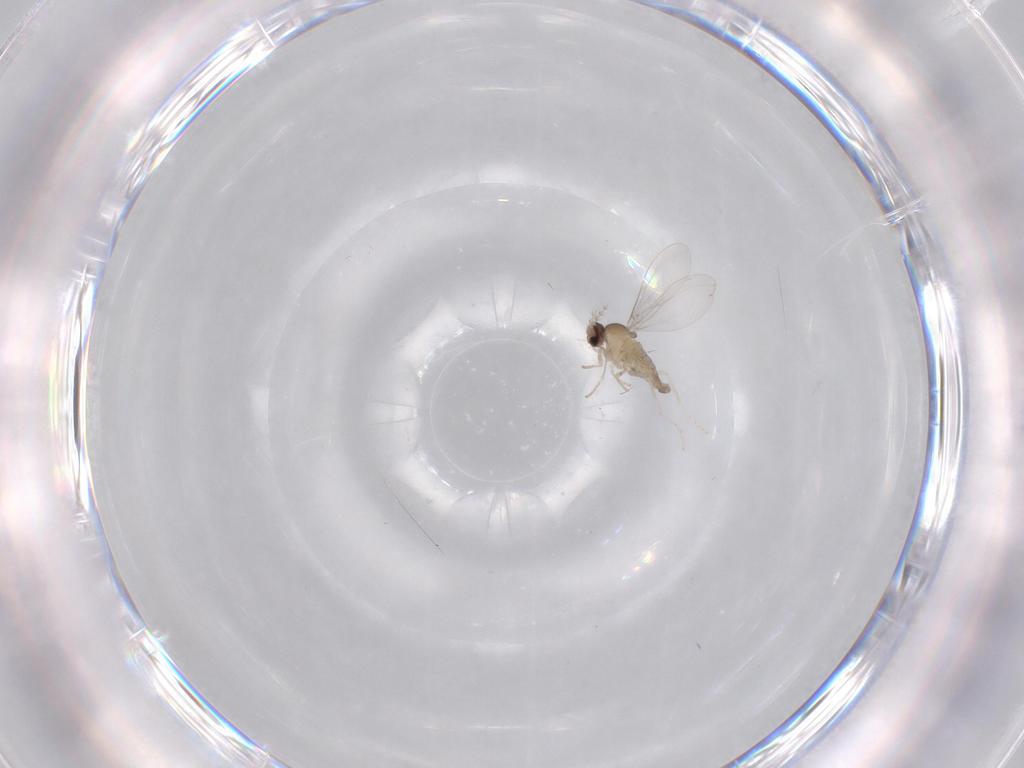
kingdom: Animalia
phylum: Arthropoda
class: Insecta
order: Diptera
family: Cecidomyiidae
